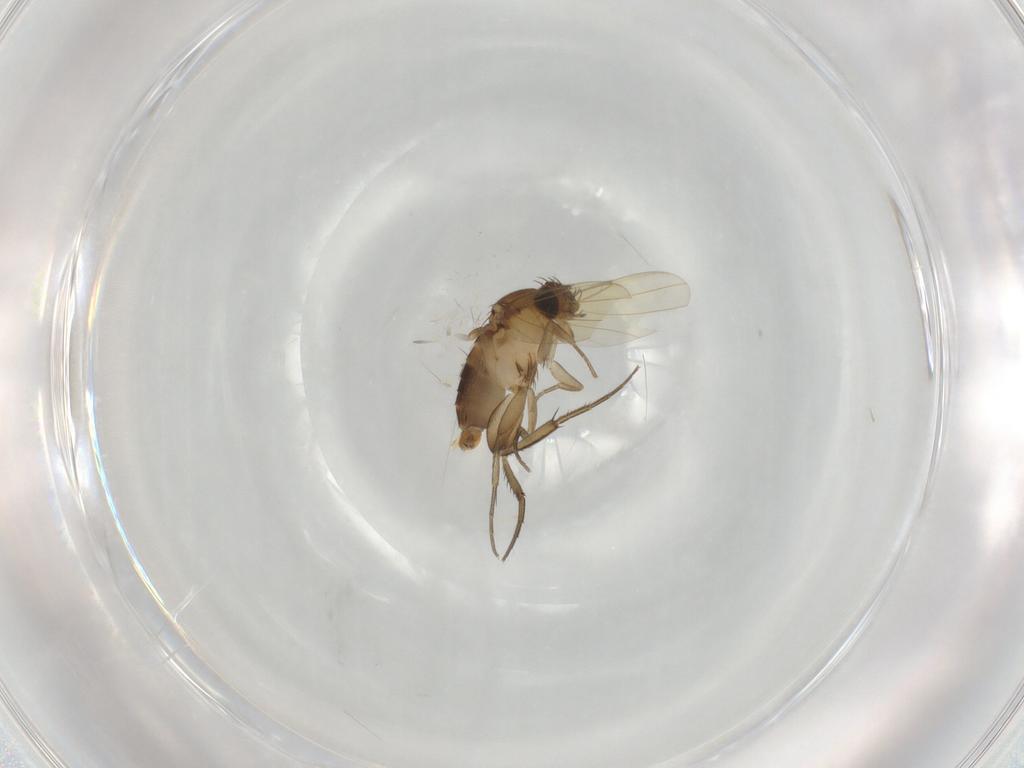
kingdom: Animalia
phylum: Arthropoda
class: Insecta
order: Diptera
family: Phoridae
